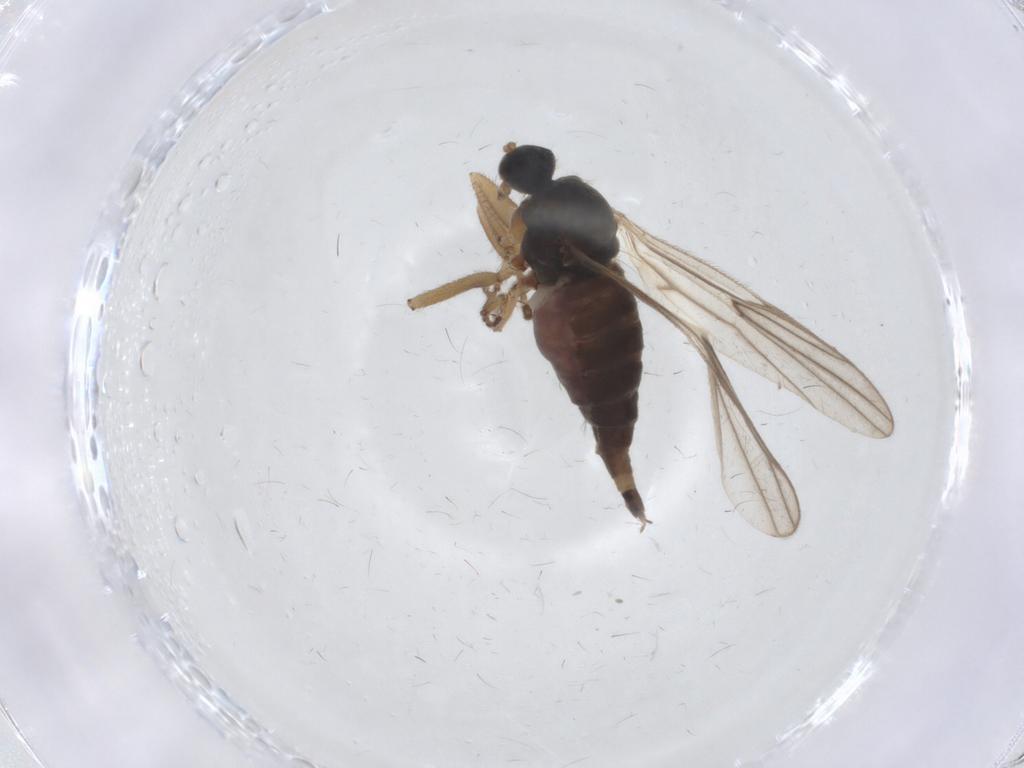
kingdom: Animalia
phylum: Arthropoda
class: Insecta
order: Diptera
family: Hybotidae
